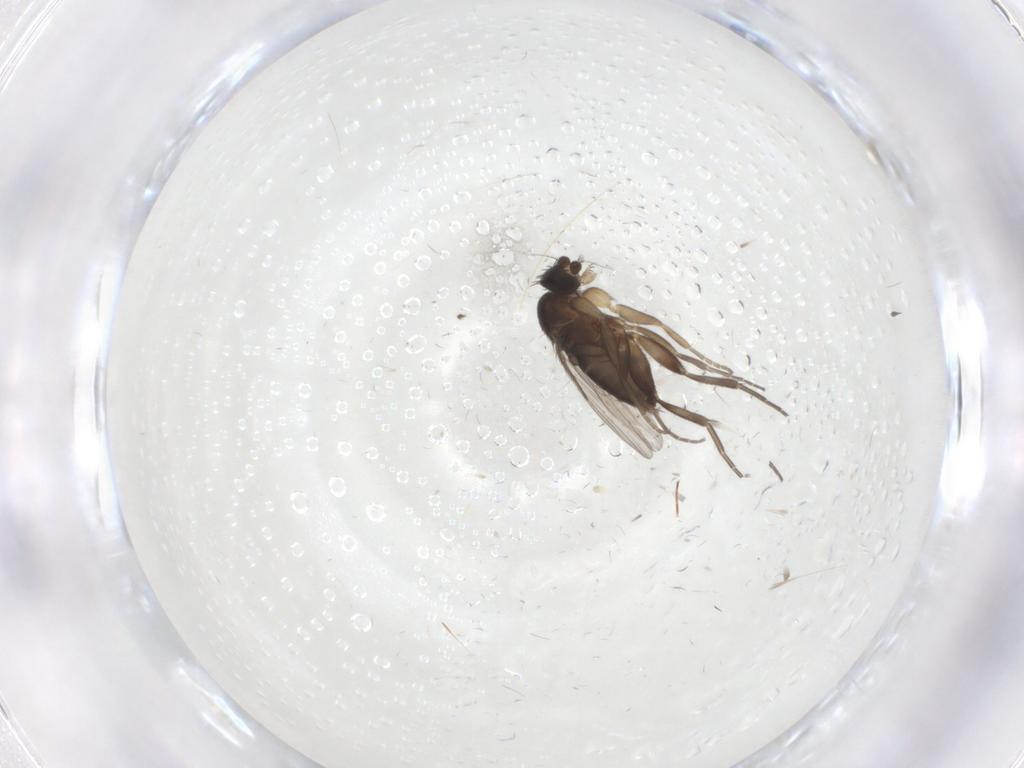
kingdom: Animalia
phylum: Arthropoda
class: Insecta
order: Diptera
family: Phoridae
